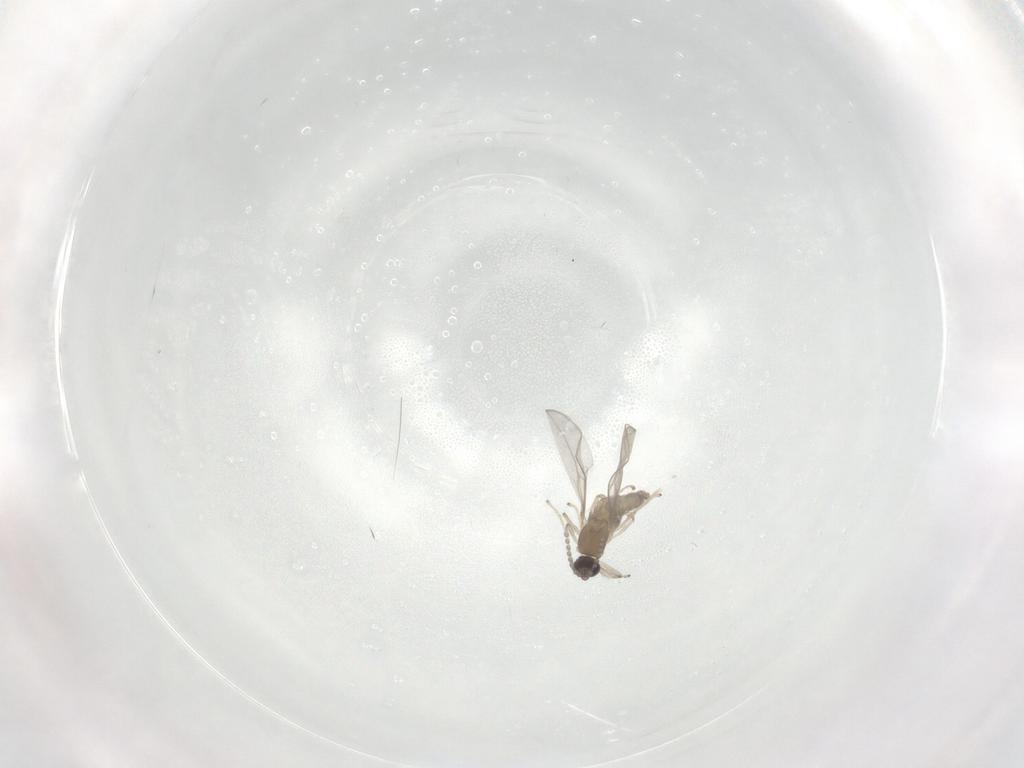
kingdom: Animalia
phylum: Arthropoda
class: Insecta
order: Diptera
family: Cecidomyiidae
